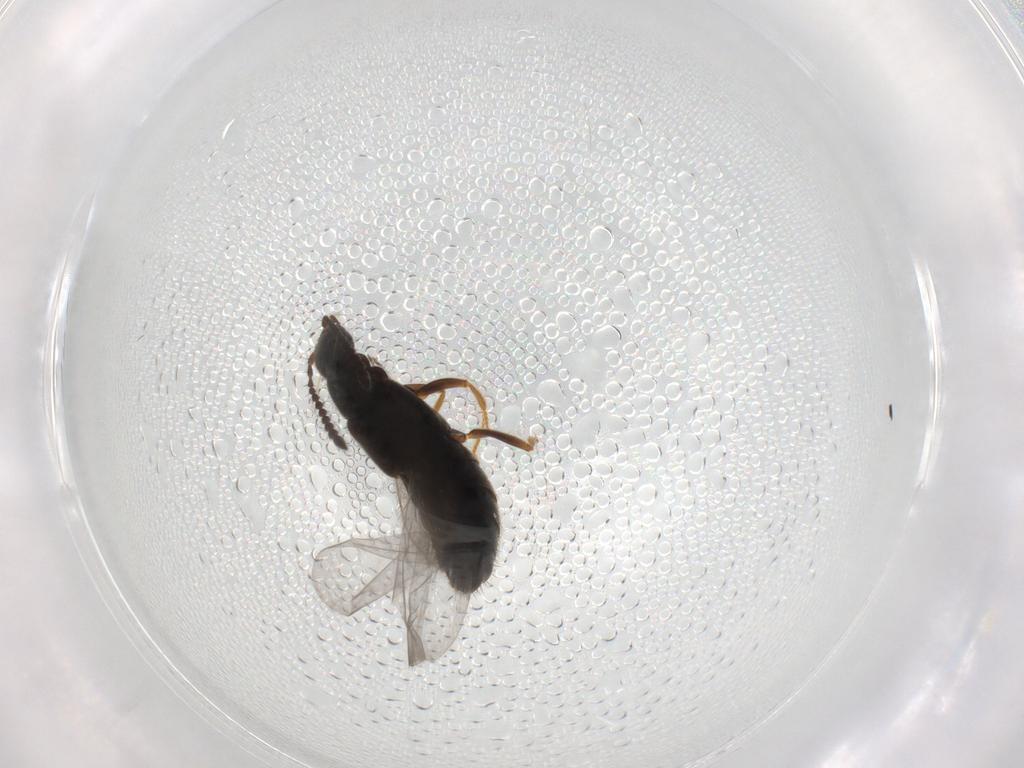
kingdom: Animalia
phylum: Arthropoda
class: Insecta
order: Coleoptera
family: Staphylinidae
